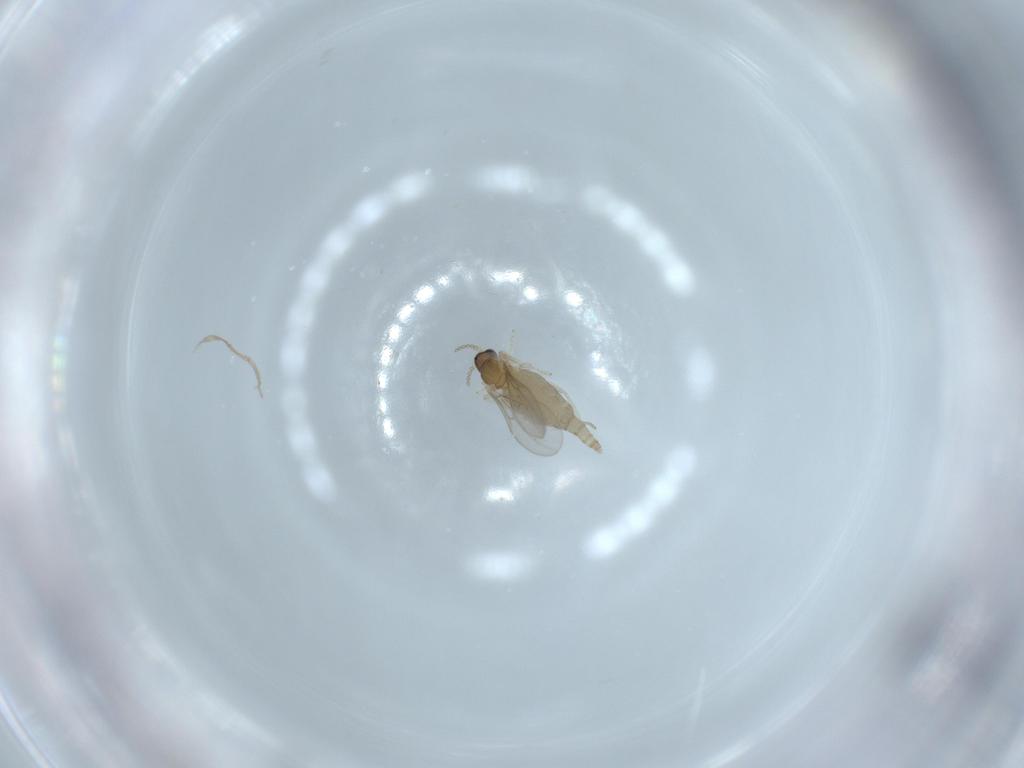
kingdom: Animalia
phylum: Arthropoda
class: Insecta
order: Diptera
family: Cecidomyiidae
